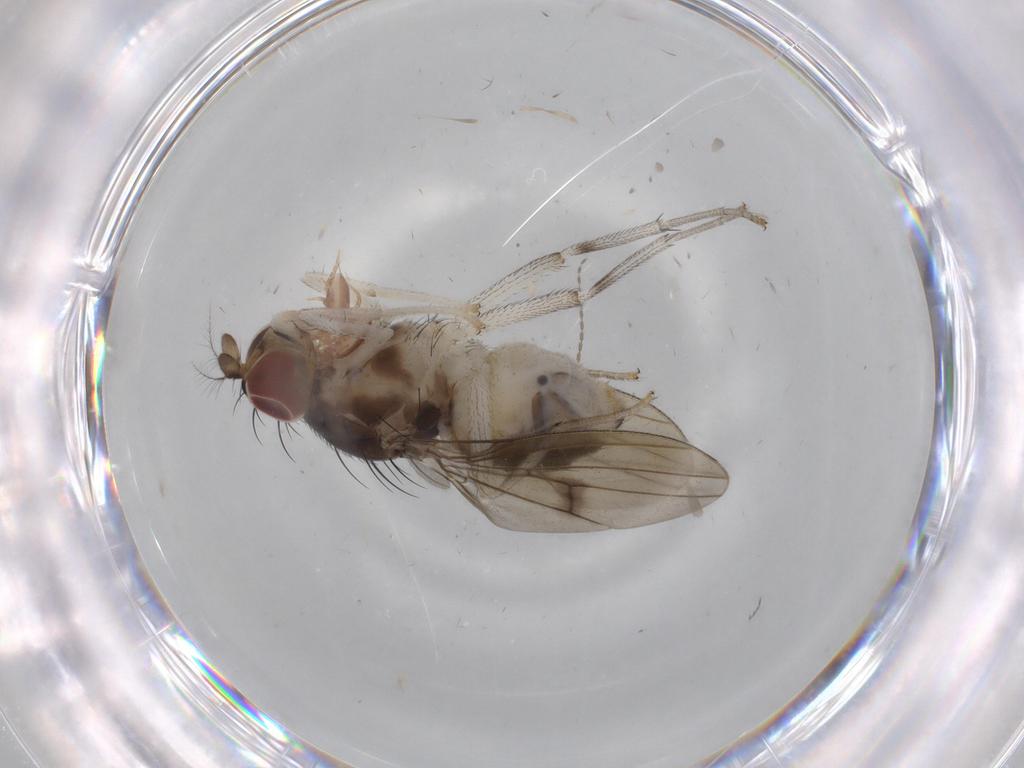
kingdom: Animalia
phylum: Arthropoda
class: Insecta
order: Diptera
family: Chironomidae
